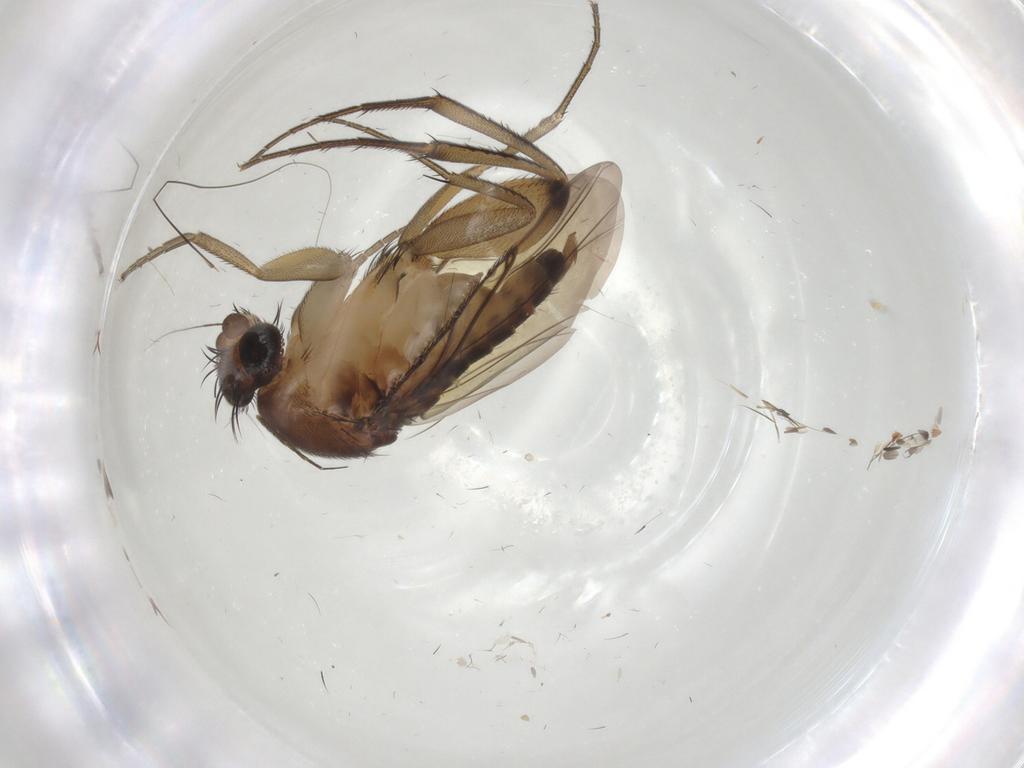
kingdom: Animalia
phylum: Arthropoda
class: Insecta
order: Diptera
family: Phoridae
